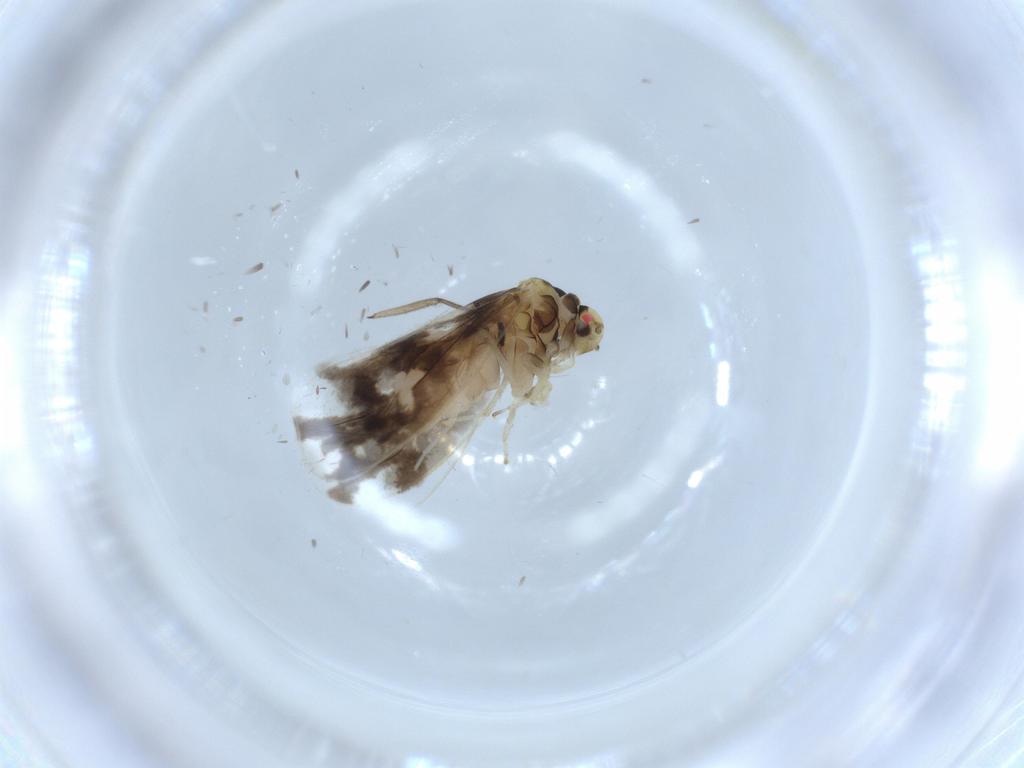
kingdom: Animalia
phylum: Arthropoda
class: Insecta
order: Hemiptera
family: Aleyrodidae
